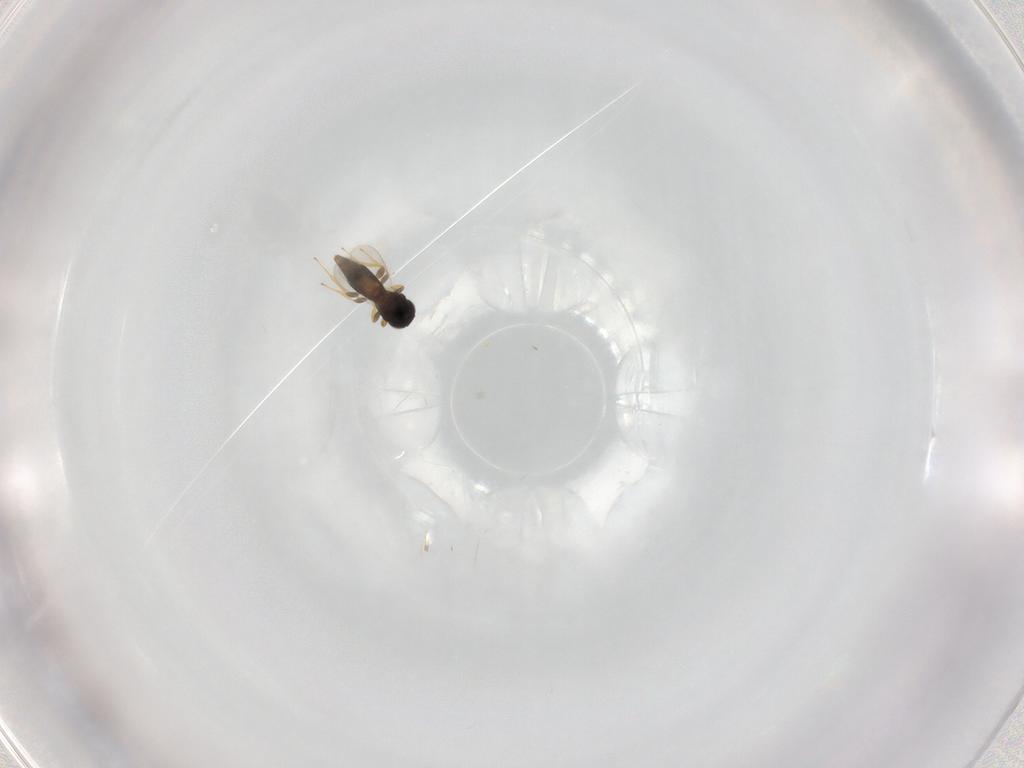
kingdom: Animalia
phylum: Arthropoda
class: Insecta
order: Hymenoptera
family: Platygastridae
